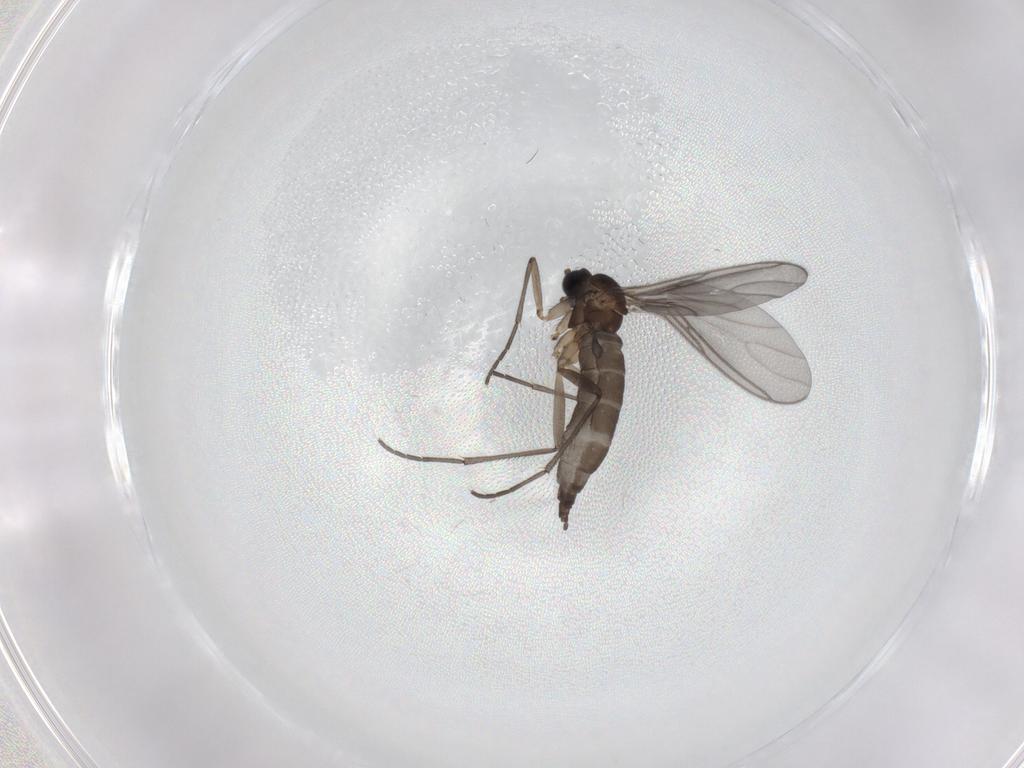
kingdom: Animalia
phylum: Arthropoda
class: Insecta
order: Diptera
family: Sciaridae
